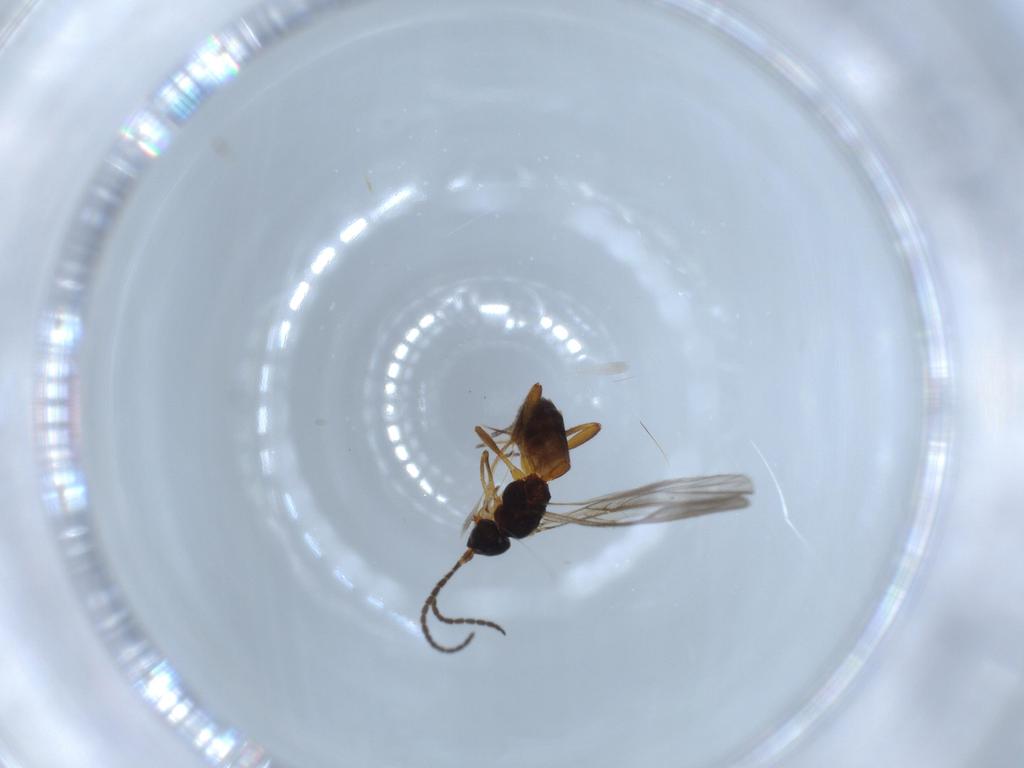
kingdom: Animalia
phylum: Arthropoda
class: Insecta
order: Hymenoptera
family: Braconidae
